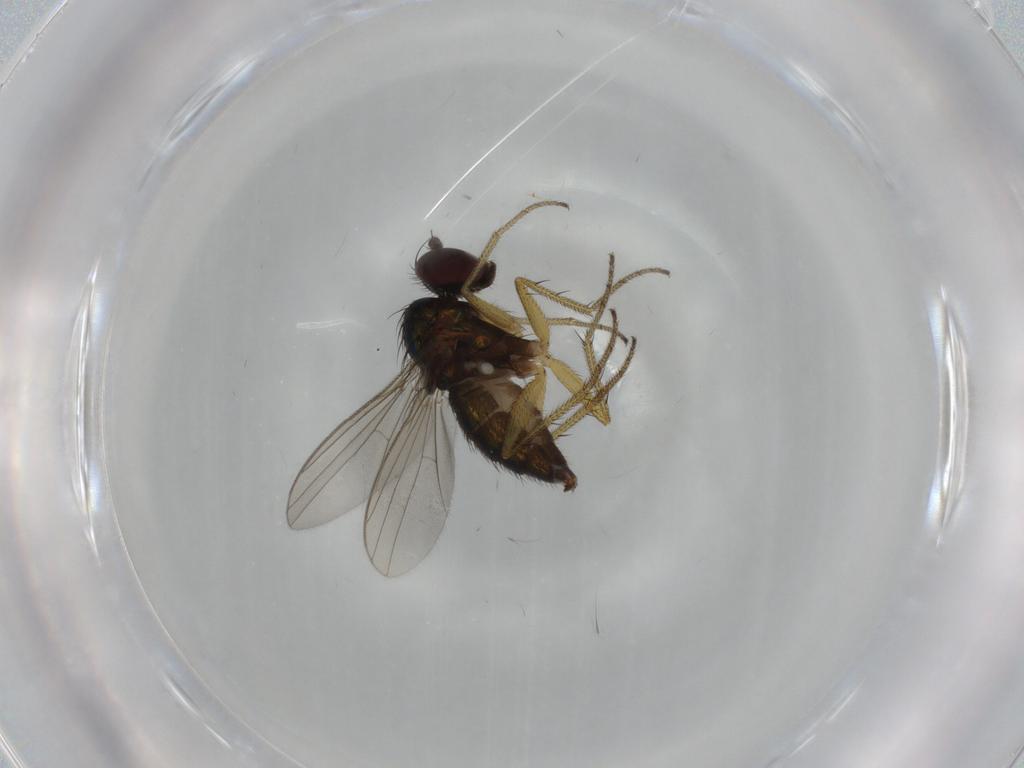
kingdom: Animalia
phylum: Arthropoda
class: Insecta
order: Diptera
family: Dolichopodidae
